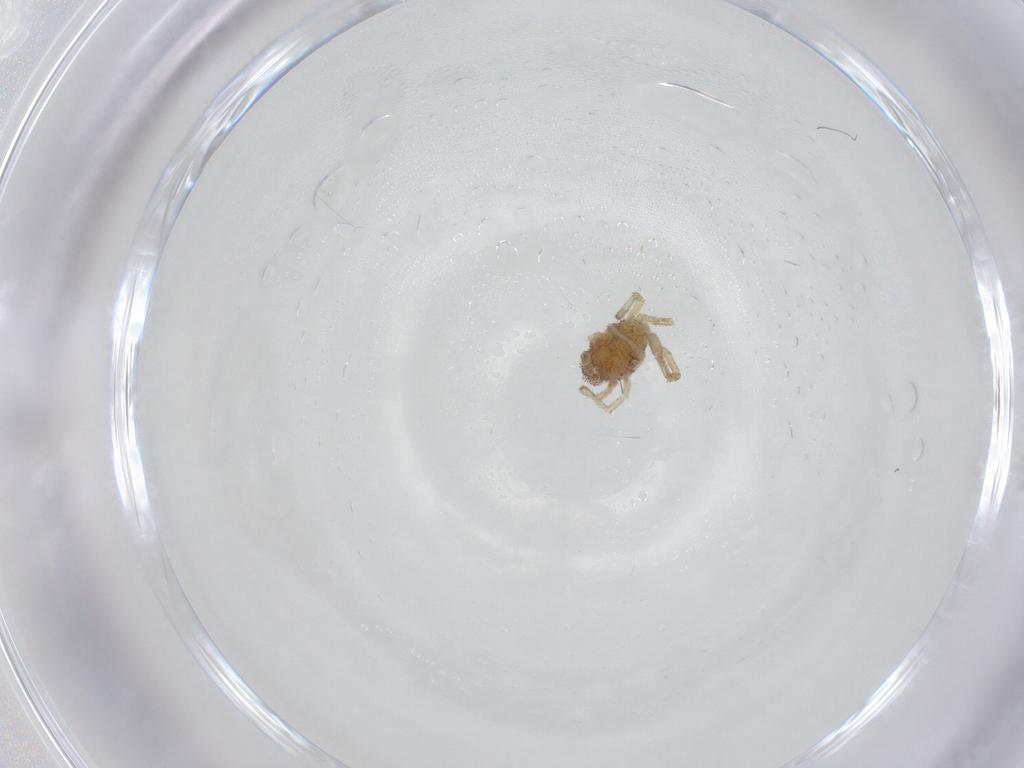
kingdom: Animalia
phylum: Arthropoda
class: Arachnida
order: Trombidiformes
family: Smarididae
